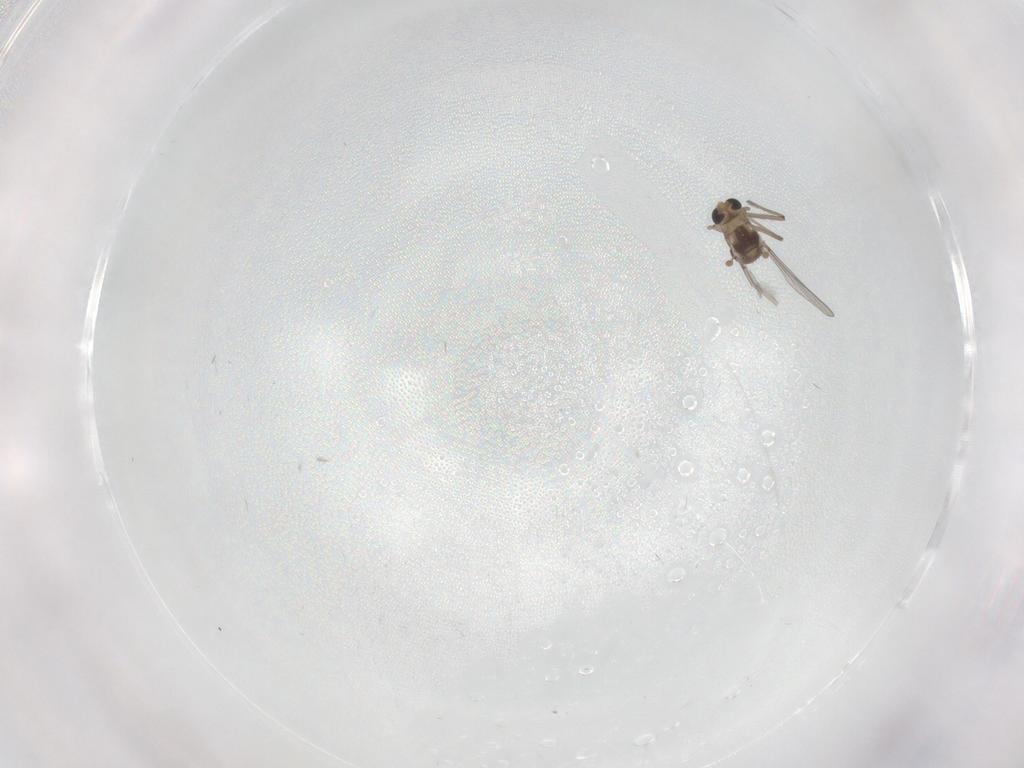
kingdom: Animalia
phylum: Arthropoda
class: Insecta
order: Diptera
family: Chironomidae
